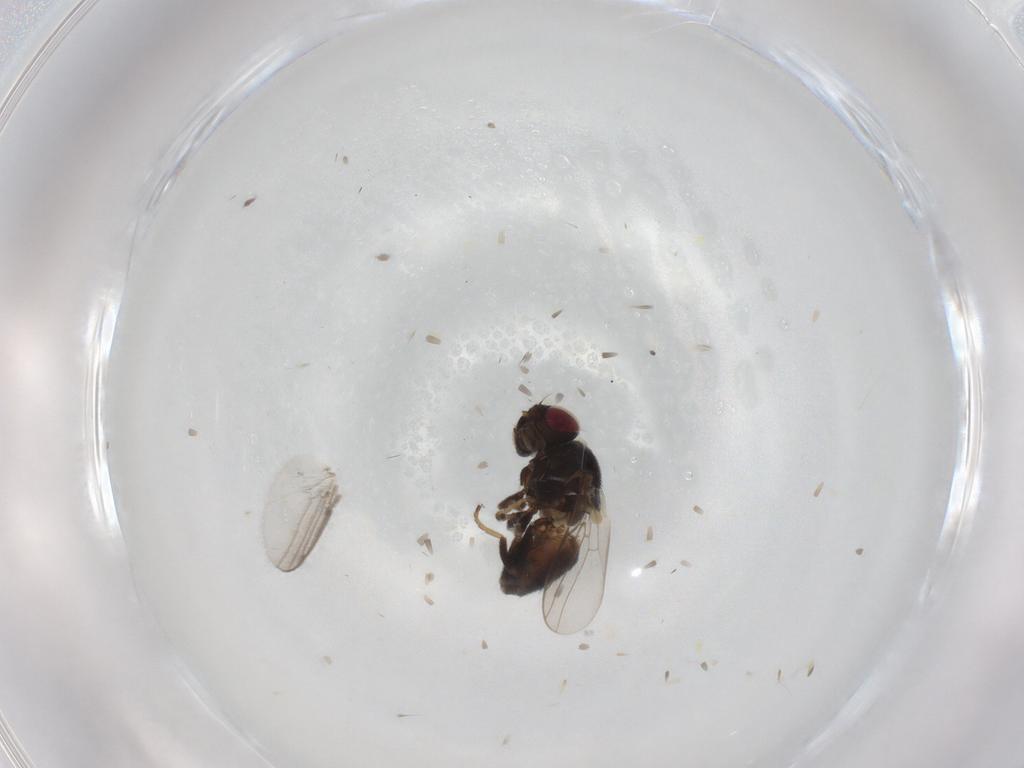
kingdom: Animalia
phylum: Arthropoda
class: Insecta
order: Diptera
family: Chloropidae
